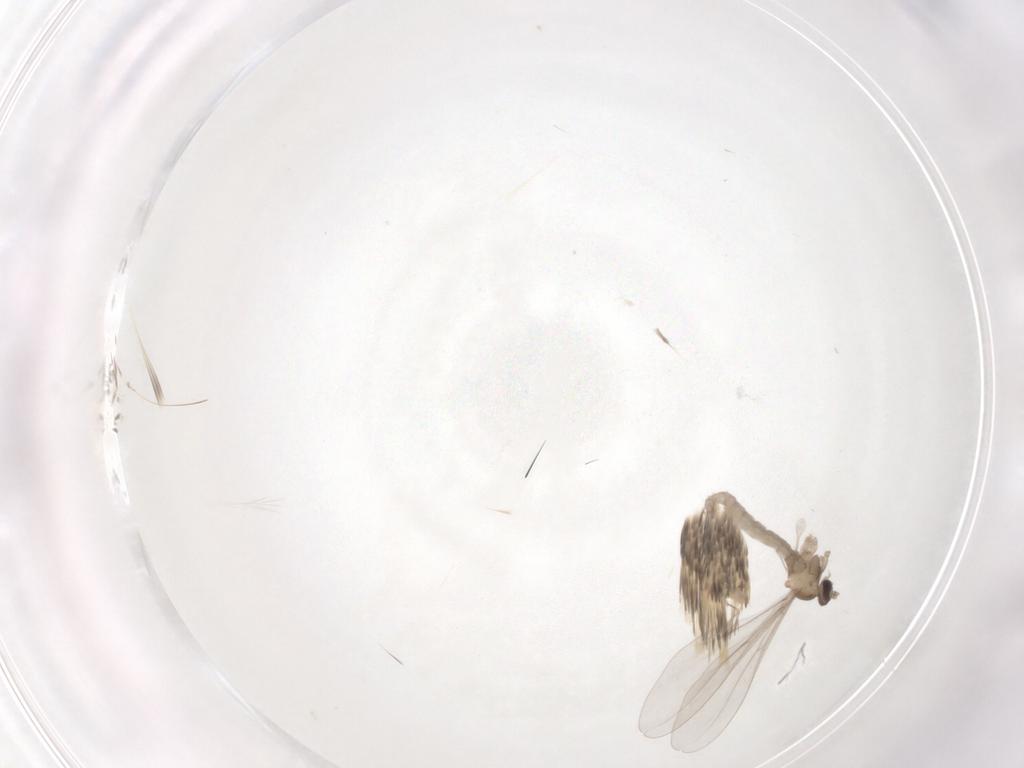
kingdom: Animalia
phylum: Arthropoda
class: Insecta
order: Diptera
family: Cecidomyiidae
